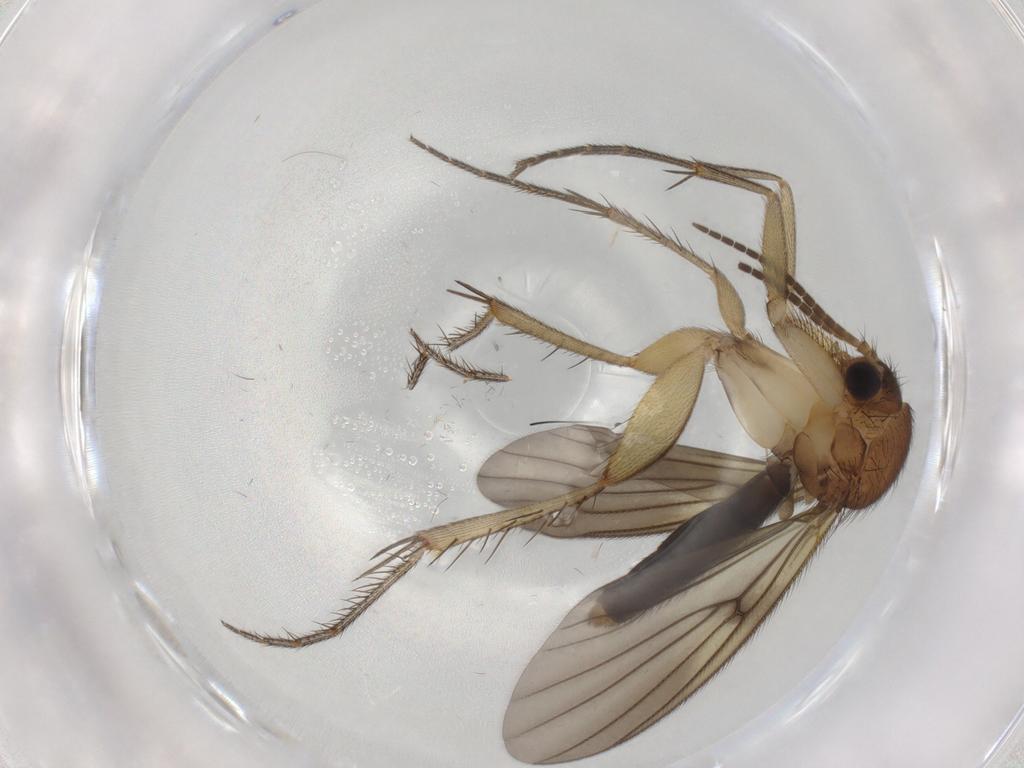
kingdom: Animalia
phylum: Arthropoda
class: Insecta
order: Diptera
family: Mycetophilidae
